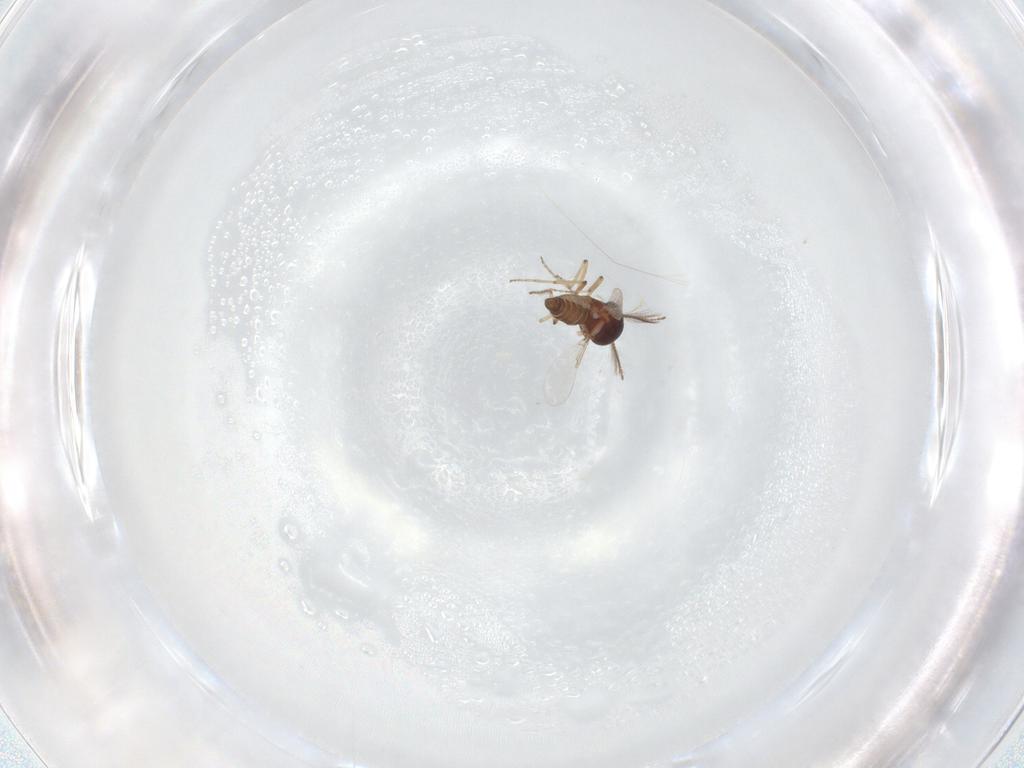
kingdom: Animalia
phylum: Arthropoda
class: Insecta
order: Diptera
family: Ceratopogonidae
